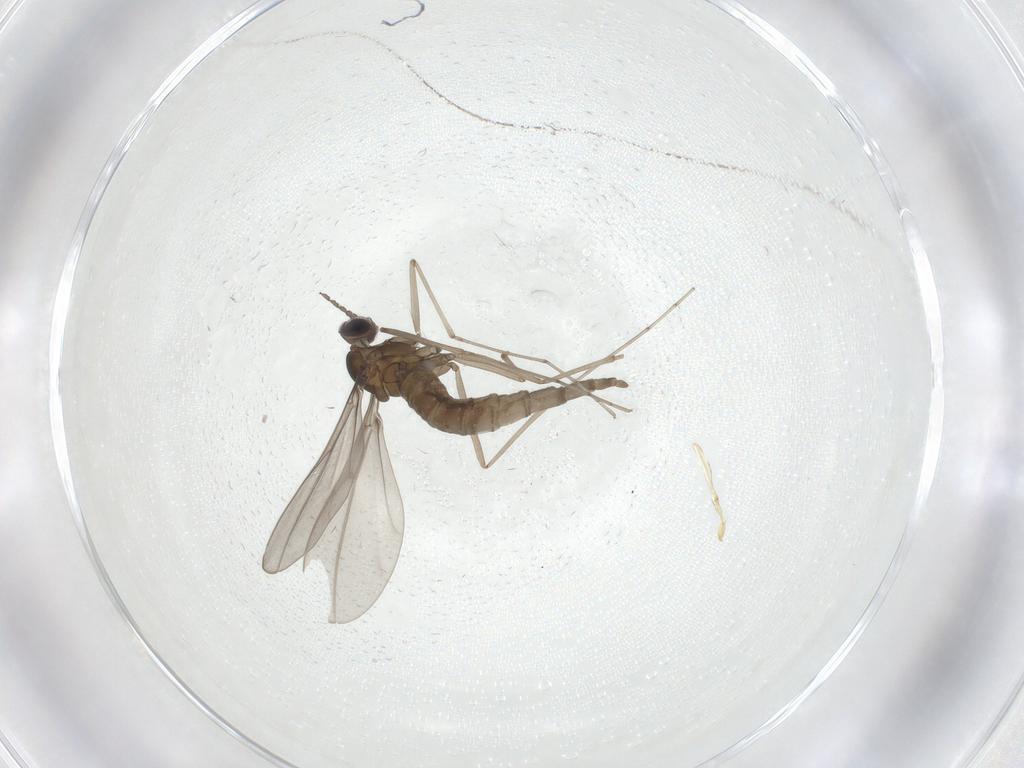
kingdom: Animalia
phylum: Arthropoda
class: Insecta
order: Diptera
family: Cecidomyiidae
